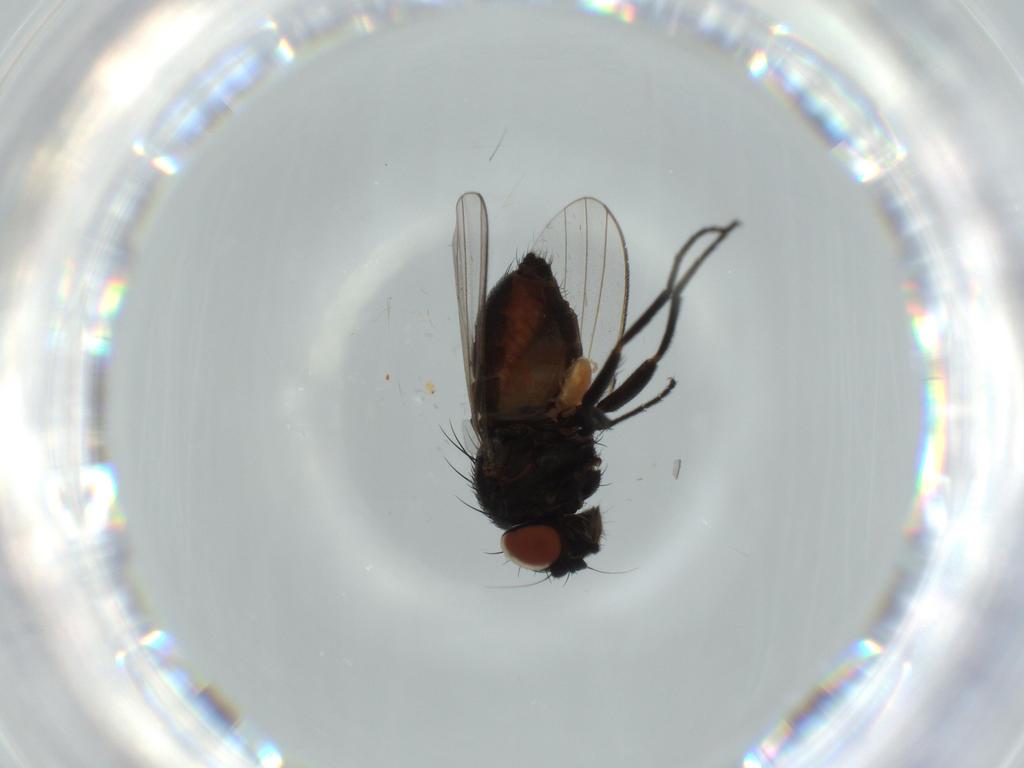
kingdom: Animalia
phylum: Arthropoda
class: Insecta
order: Diptera
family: Milichiidae
